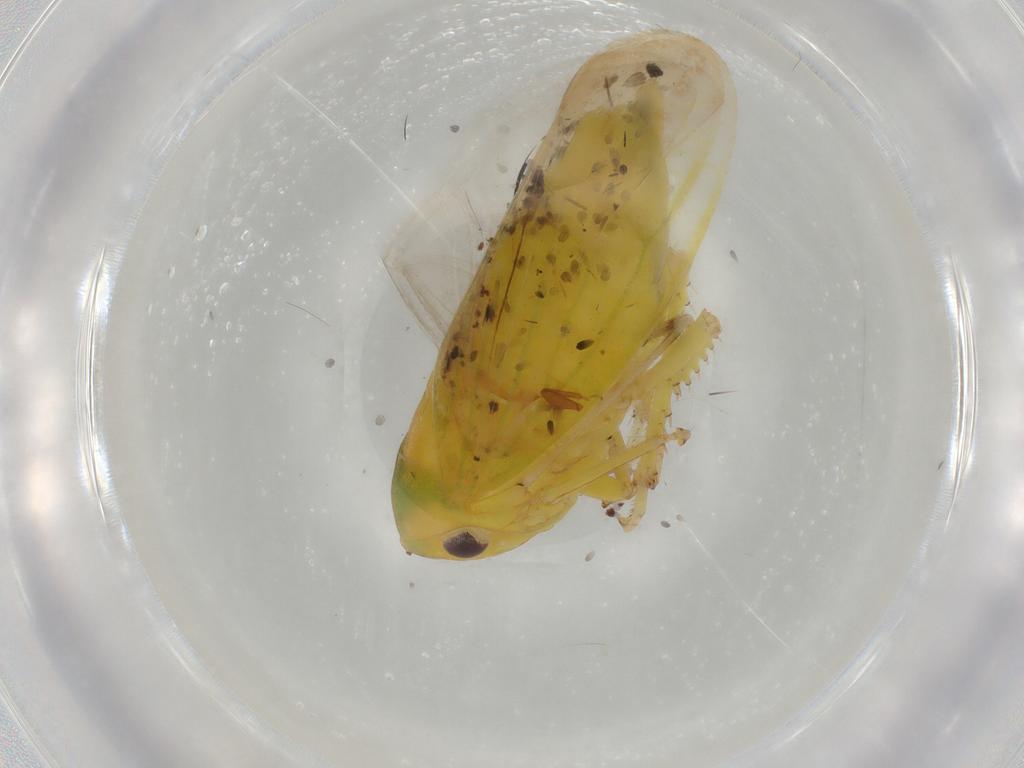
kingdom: Animalia
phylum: Arthropoda
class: Insecta
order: Hemiptera
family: Cicadellidae
